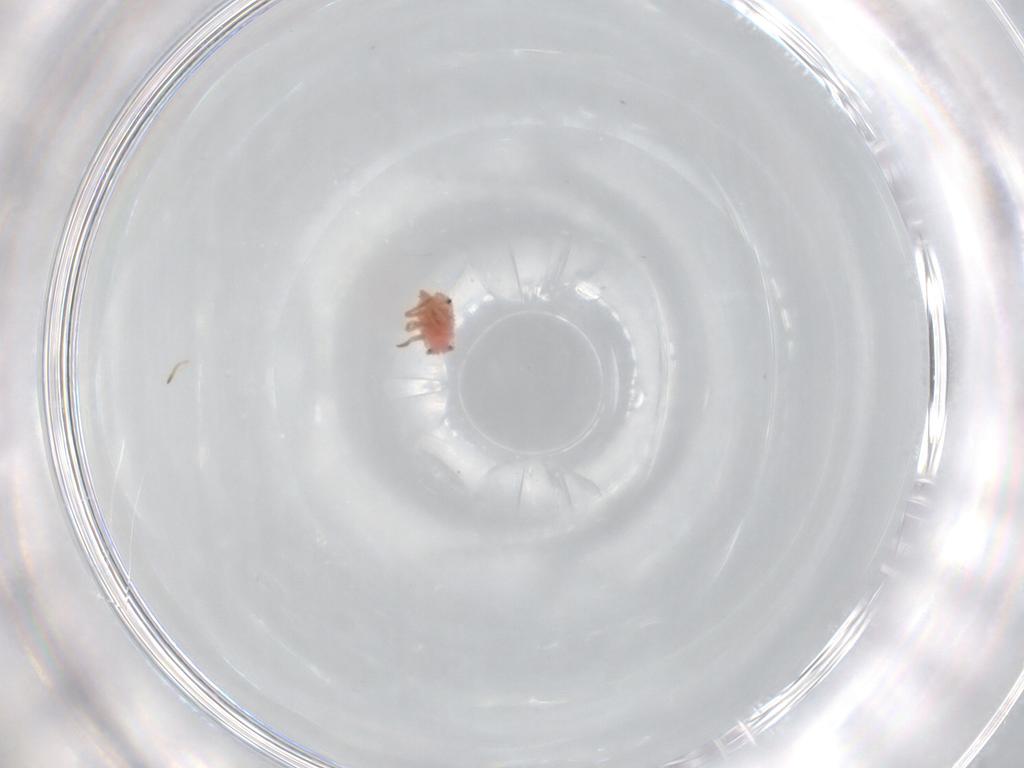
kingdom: Animalia
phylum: Arthropoda
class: Insecta
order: Hemiptera
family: Coccoidea_incertae_sedis
